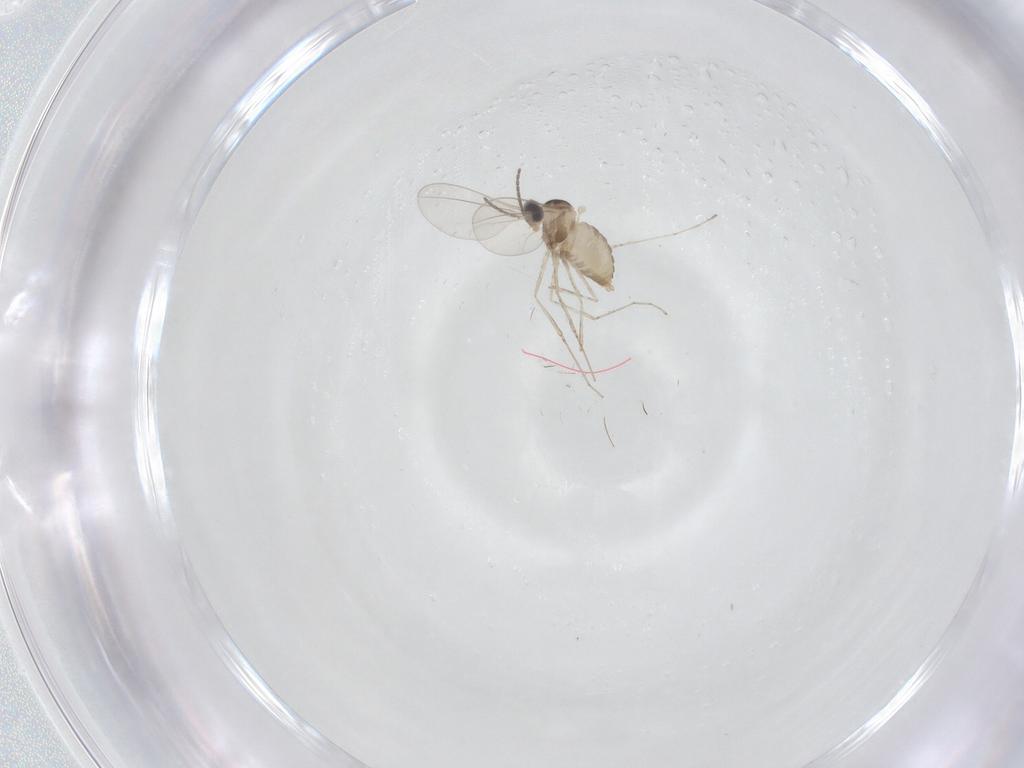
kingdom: Animalia
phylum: Arthropoda
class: Insecta
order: Diptera
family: Cecidomyiidae
